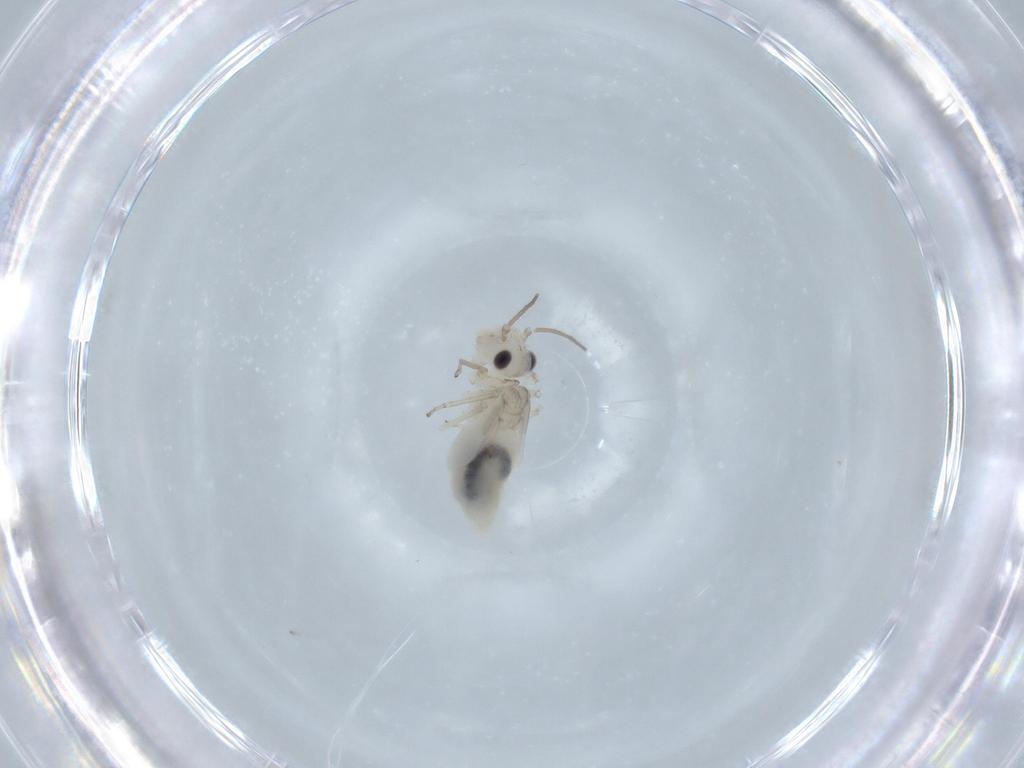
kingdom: Animalia
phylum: Arthropoda
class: Insecta
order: Psocodea
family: Caeciliusidae
